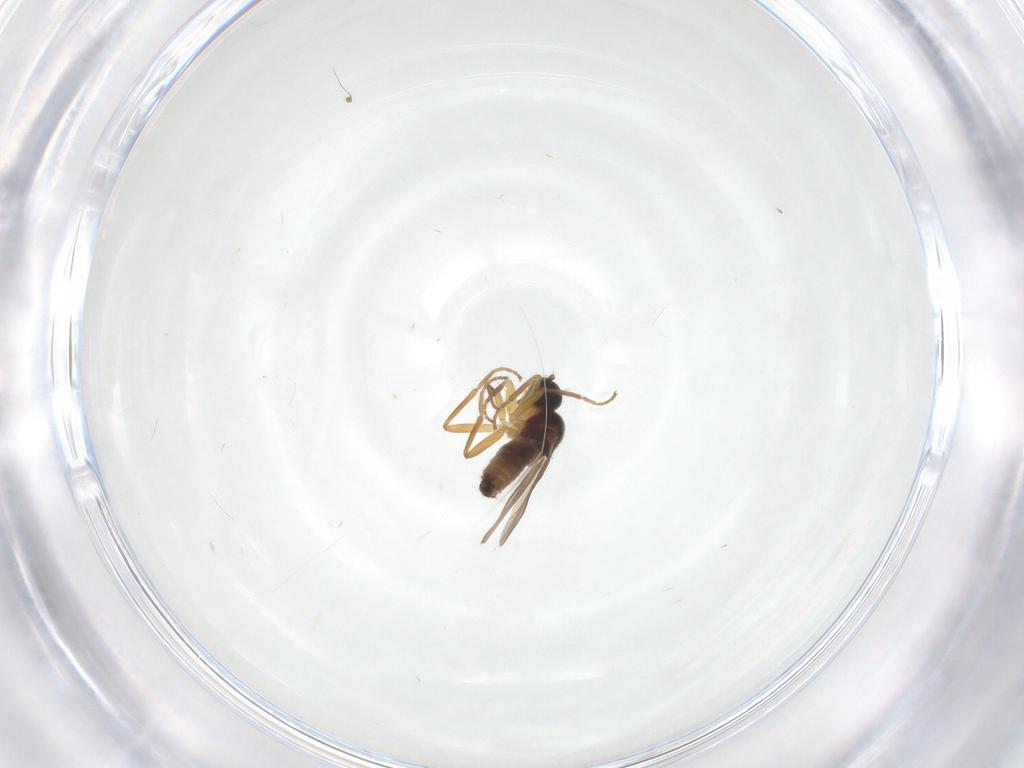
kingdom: Animalia
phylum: Arthropoda
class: Insecta
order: Diptera
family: Hybotidae
